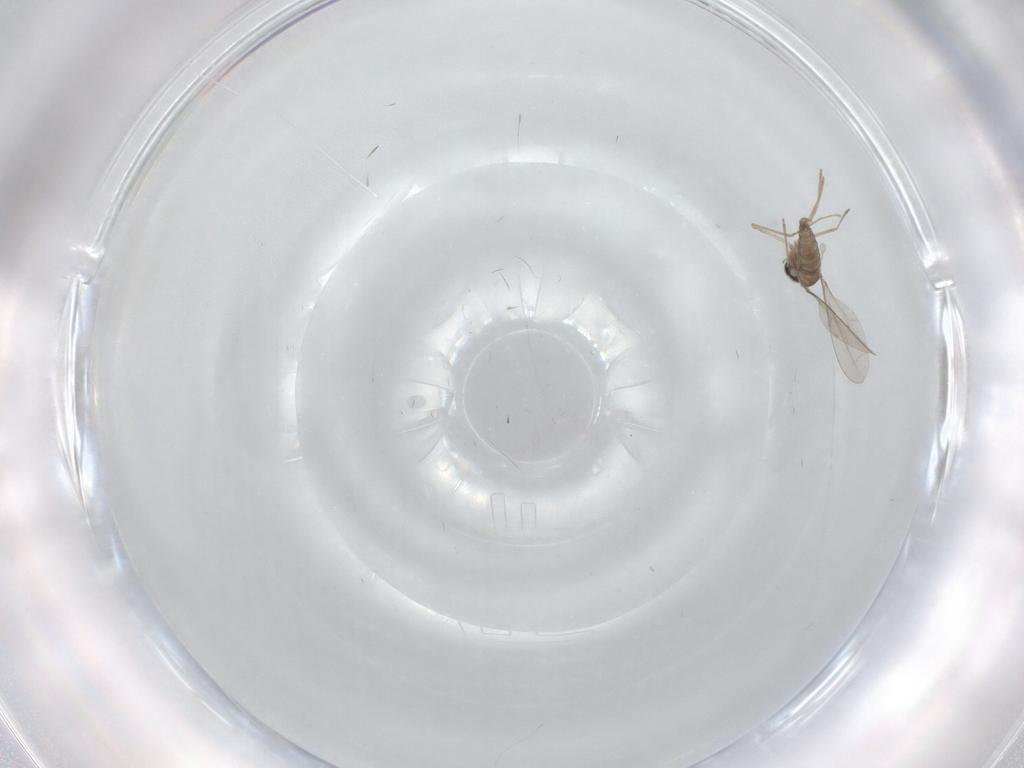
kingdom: Animalia
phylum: Arthropoda
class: Insecta
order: Diptera
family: Cecidomyiidae
